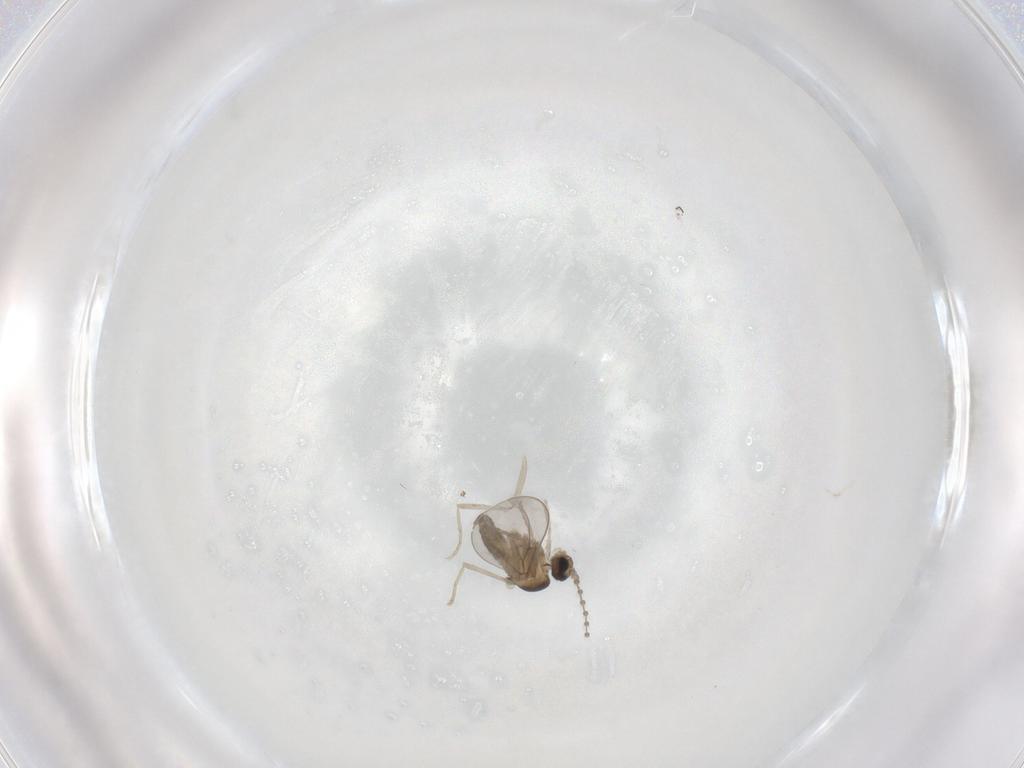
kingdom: Animalia
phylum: Arthropoda
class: Insecta
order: Diptera
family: Cecidomyiidae
